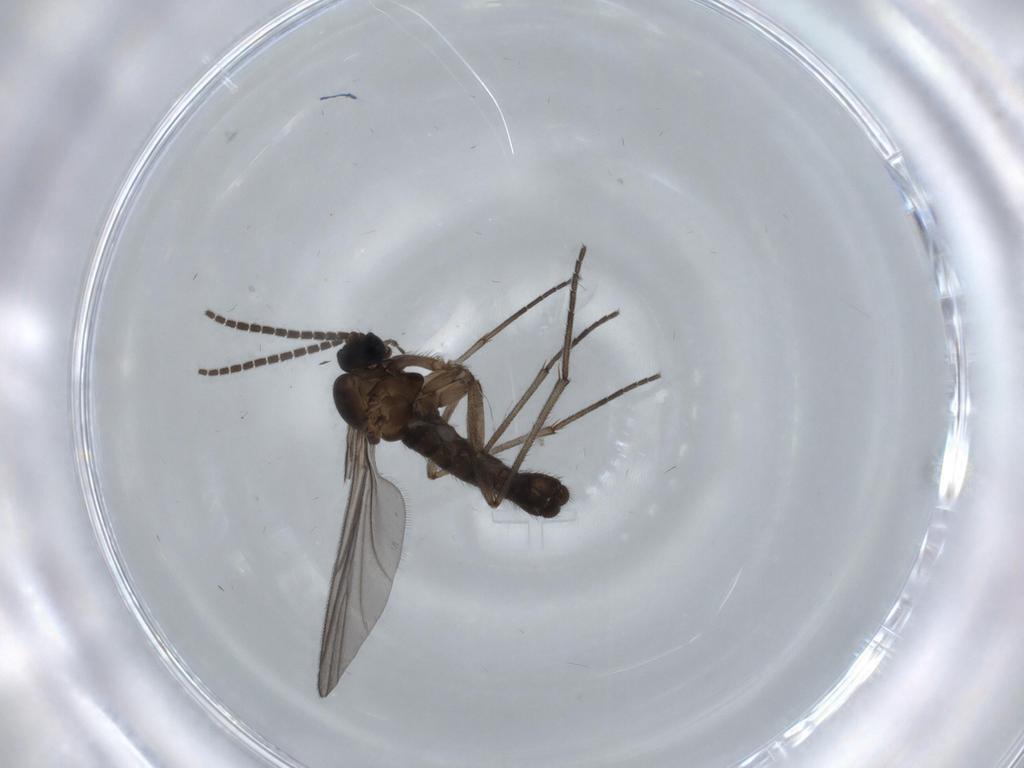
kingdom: Animalia
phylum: Arthropoda
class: Insecta
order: Diptera
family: Sciaridae
